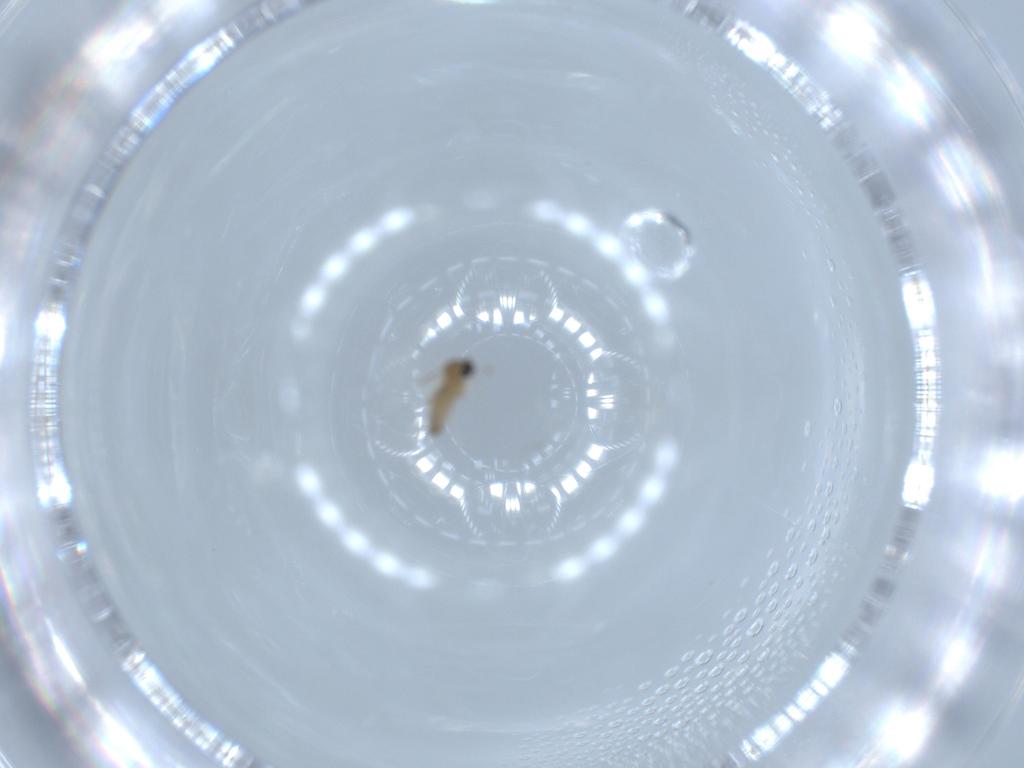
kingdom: Animalia
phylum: Arthropoda
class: Insecta
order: Diptera
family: Cecidomyiidae
